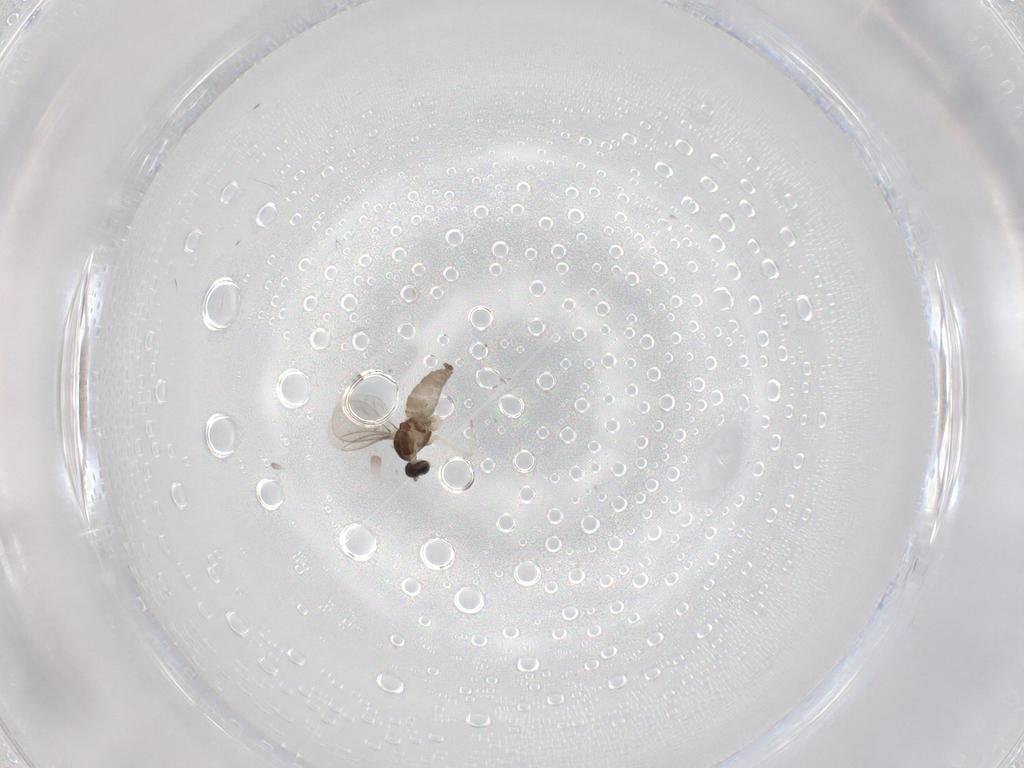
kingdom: Animalia
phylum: Arthropoda
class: Insecta
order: Diptera
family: Cecidomyiidae
